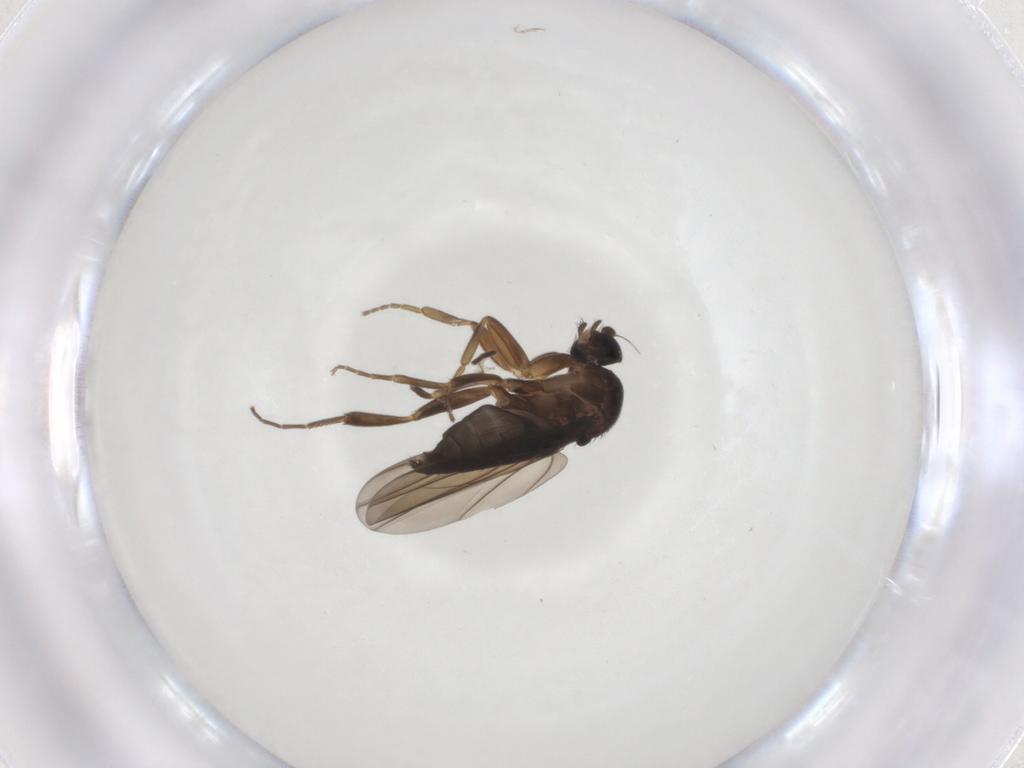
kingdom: Animalia
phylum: Arthropoda
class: Insecta
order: Diptera
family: Sciaridae
